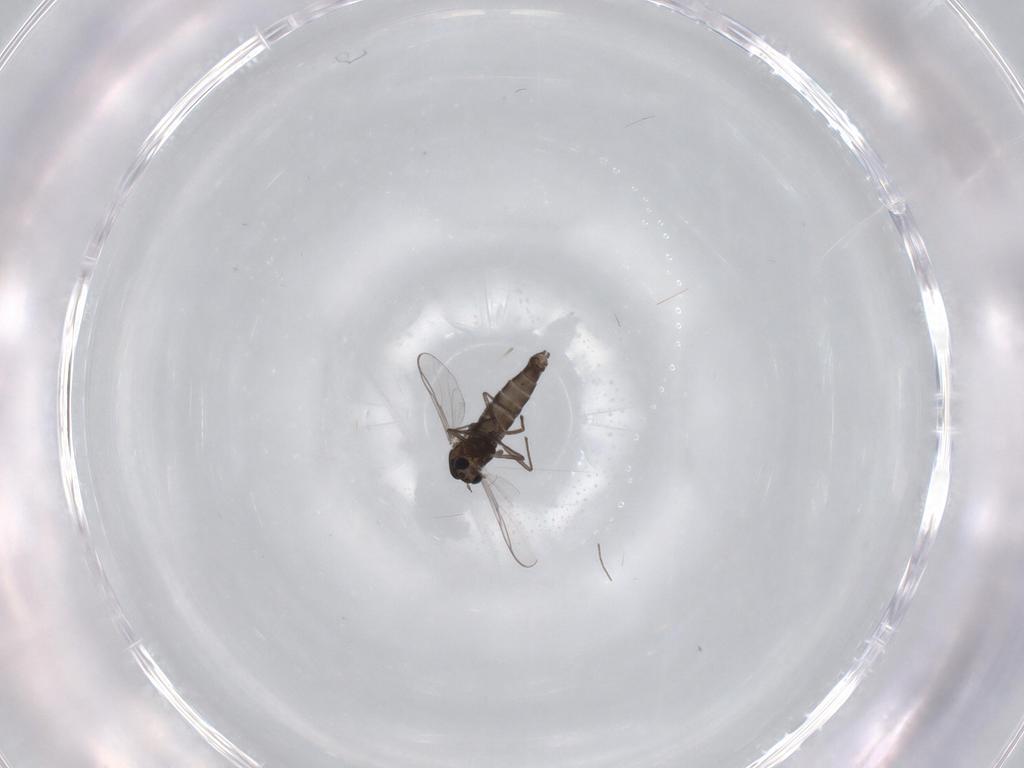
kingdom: Animalia
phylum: Arthropoda
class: Insecta
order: Diptera
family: Chironomidae
